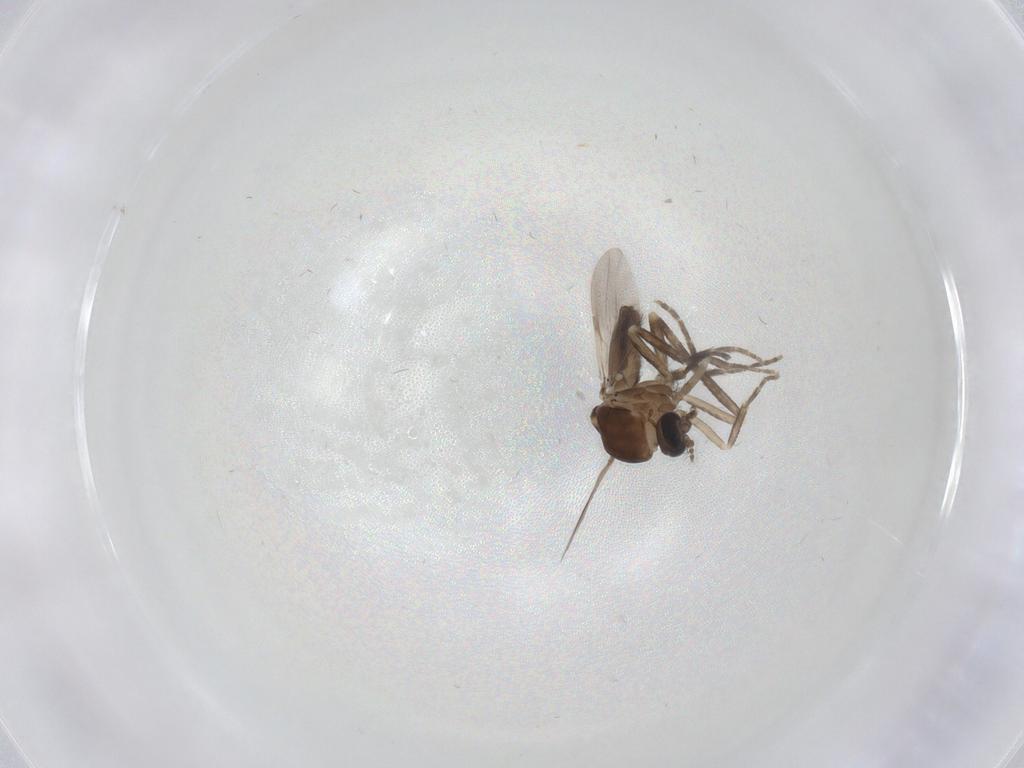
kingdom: Animalia
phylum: Arthropoda
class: Insecta
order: Diptera
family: Ceratopogonidae
